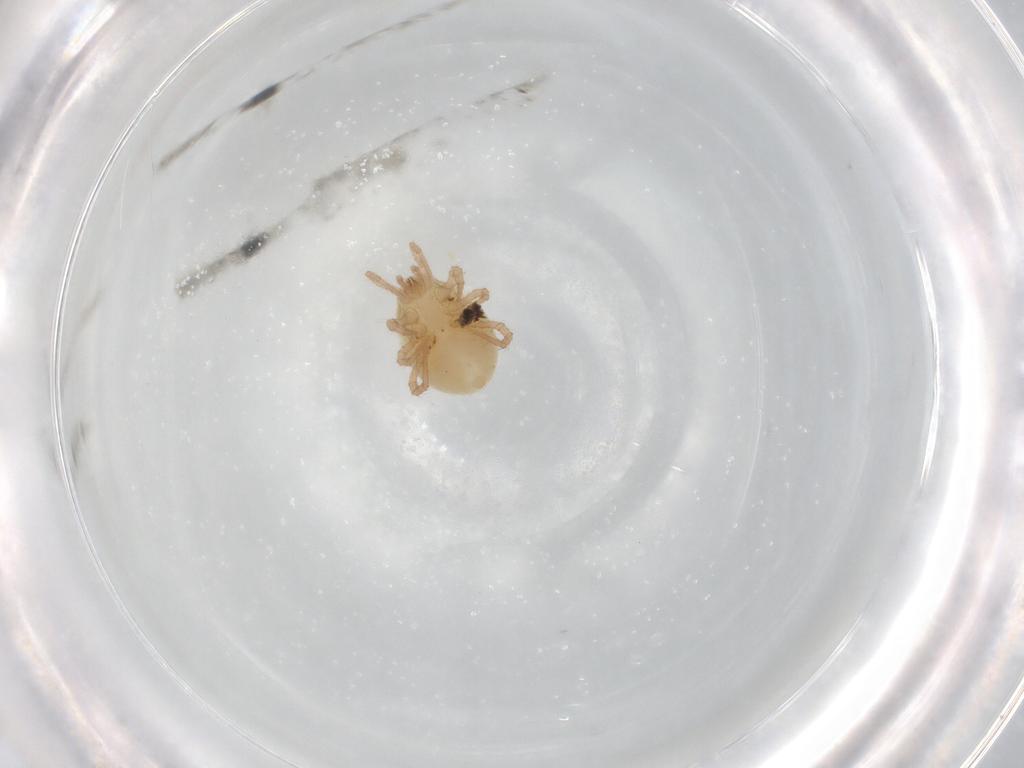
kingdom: Animalia
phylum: Arthropoda
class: Arachnida
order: Mesostigmata
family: Parasitidae
